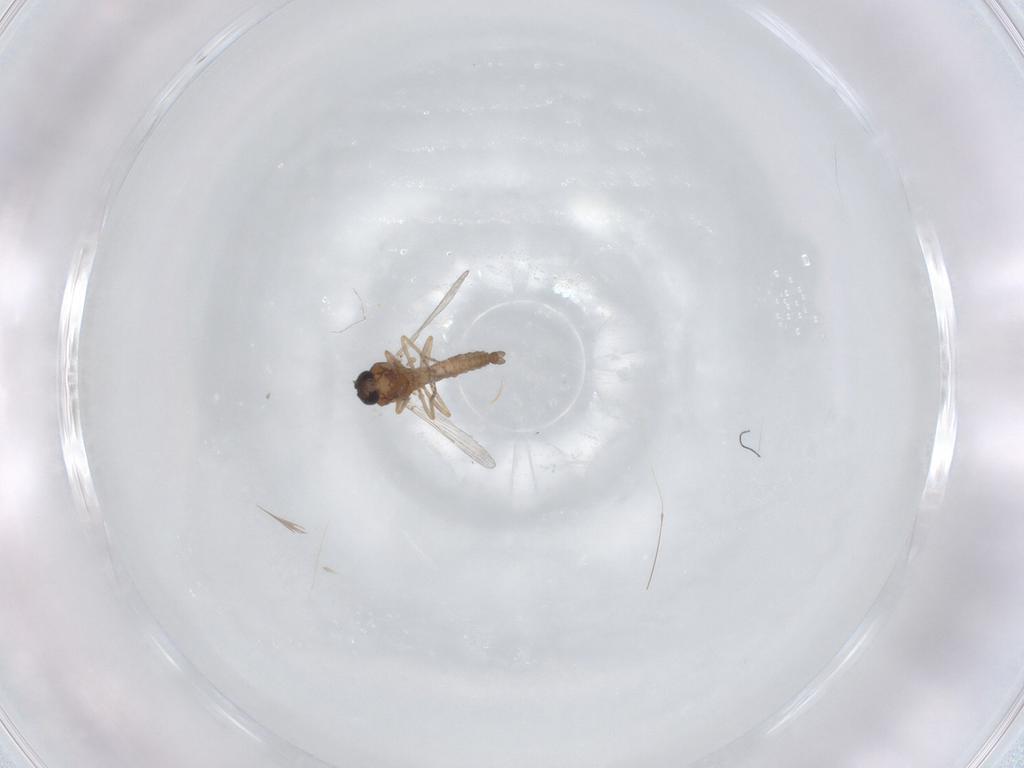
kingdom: Animalia
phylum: Arthropoda
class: Insecta
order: Diptera
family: Ceratopogonidae
